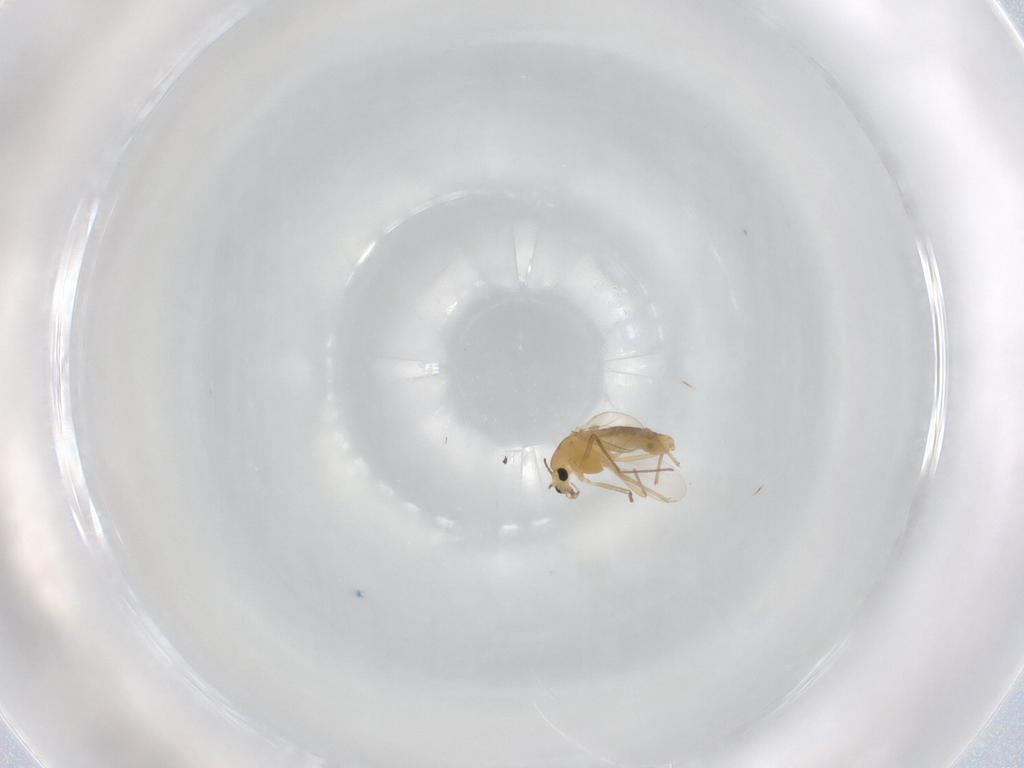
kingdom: Animalia
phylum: Arthropoda
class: Insecta
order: Diptera
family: Chironomidae
